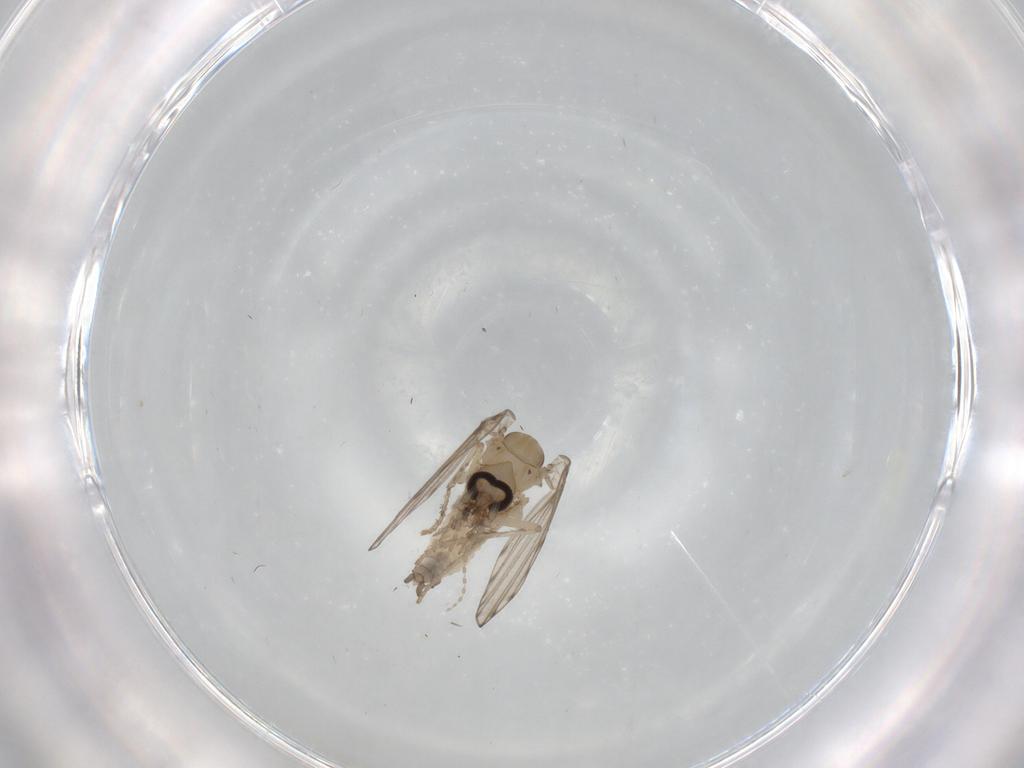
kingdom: Animalia
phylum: Arthropoda
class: Insecta
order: Diptera
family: Psychodidae
